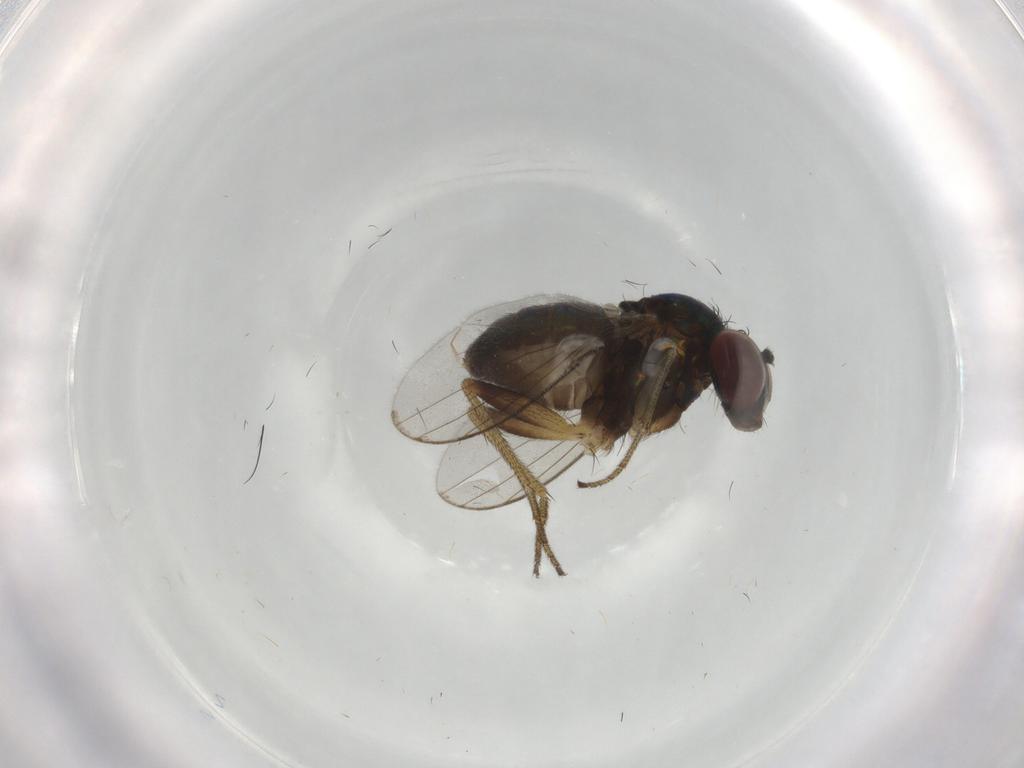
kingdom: Animalia
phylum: Arthropoda
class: Insecta
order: Diptera
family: Dolichopodidae
